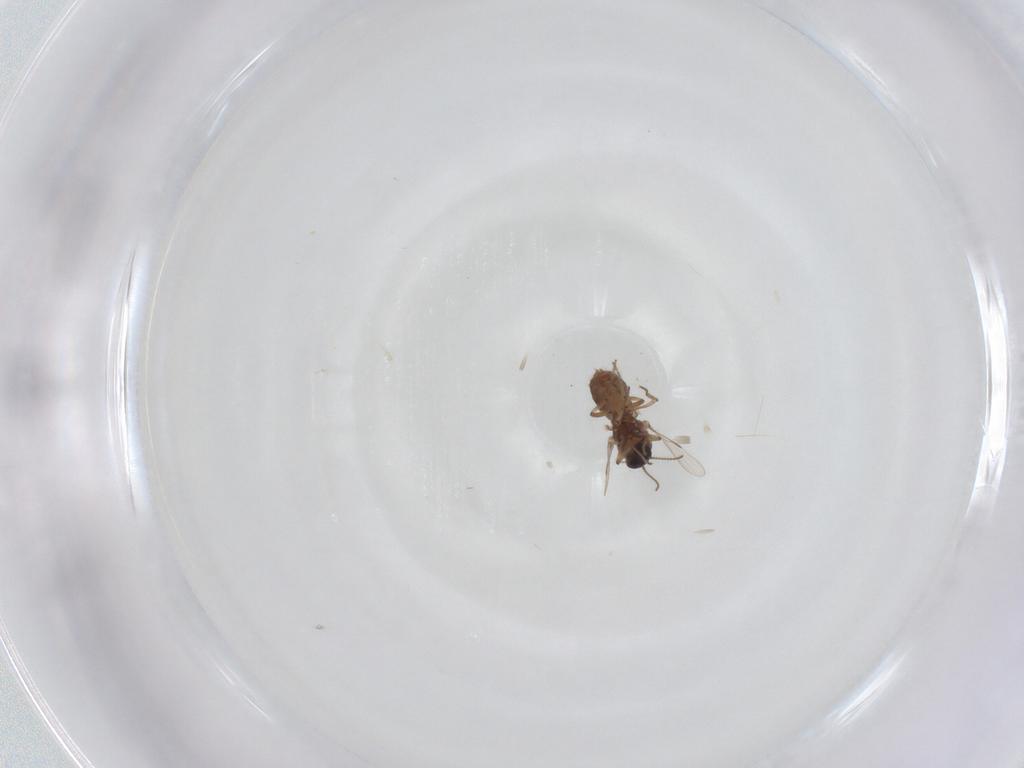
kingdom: Animalia
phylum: Arthropoda
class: Insecta
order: Diptera
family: Ceratopogonidae
